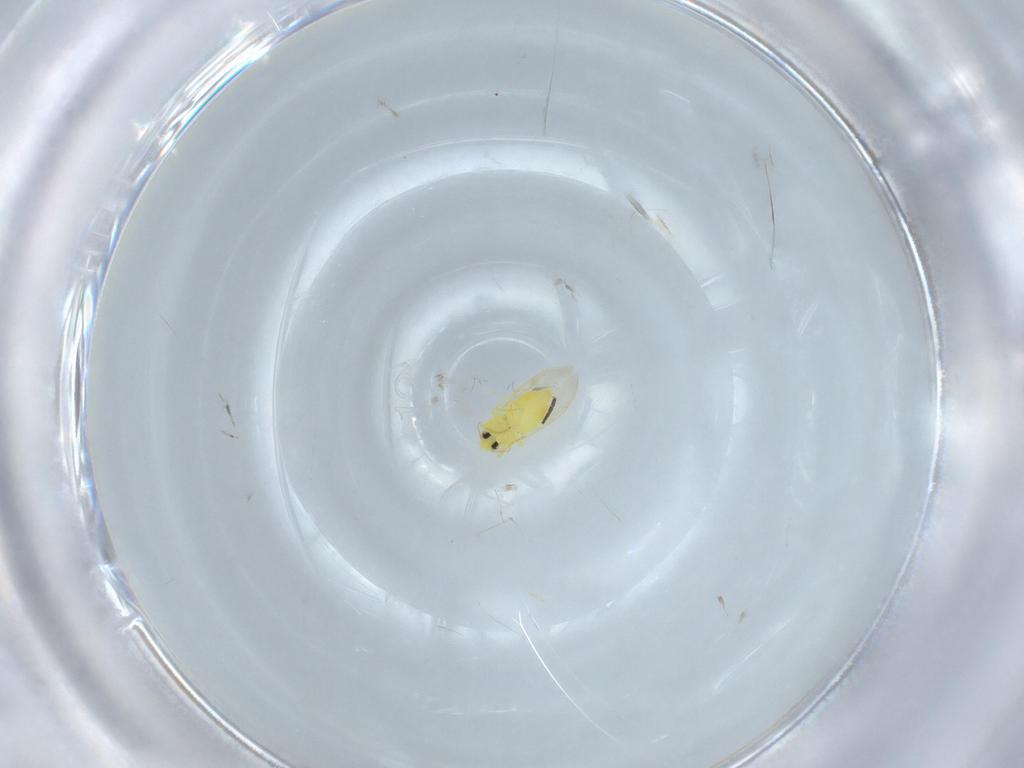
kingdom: Animalia
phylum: Arthropoda
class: Insecta
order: Hemiptera
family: Aleyrodidae
